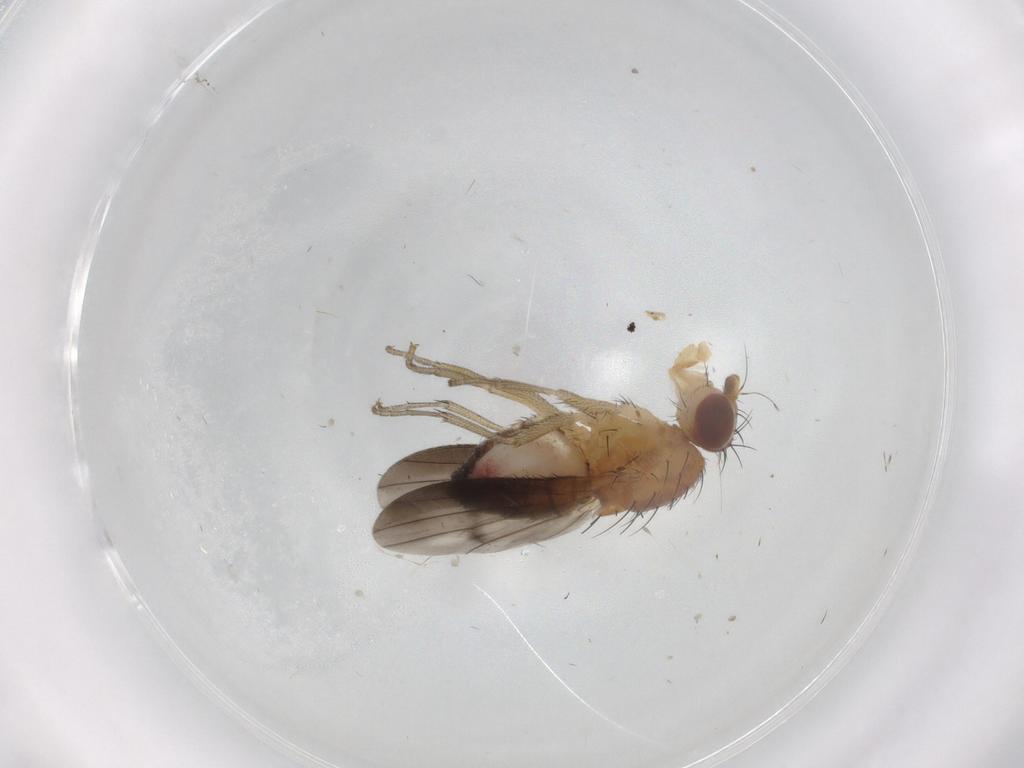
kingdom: Animalia
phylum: Arthropoda
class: Insecta
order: Diptera
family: Heleomyzidae
